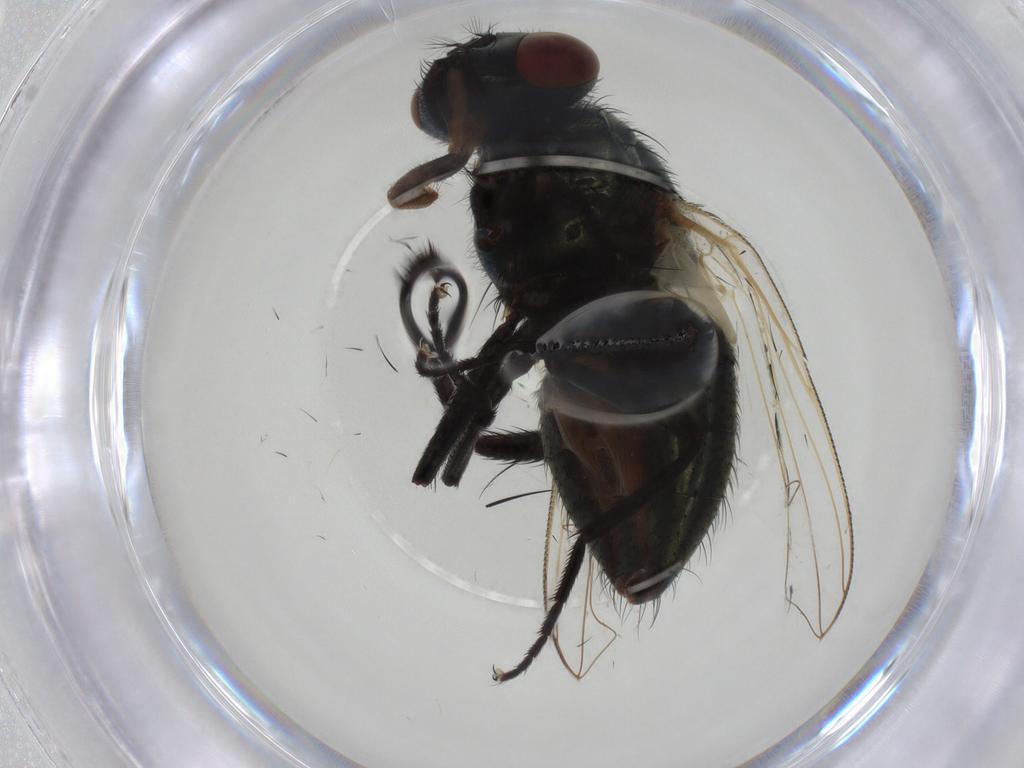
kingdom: Animalia
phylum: Arthropoda
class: Insecta
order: Diptera
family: Muscidae
